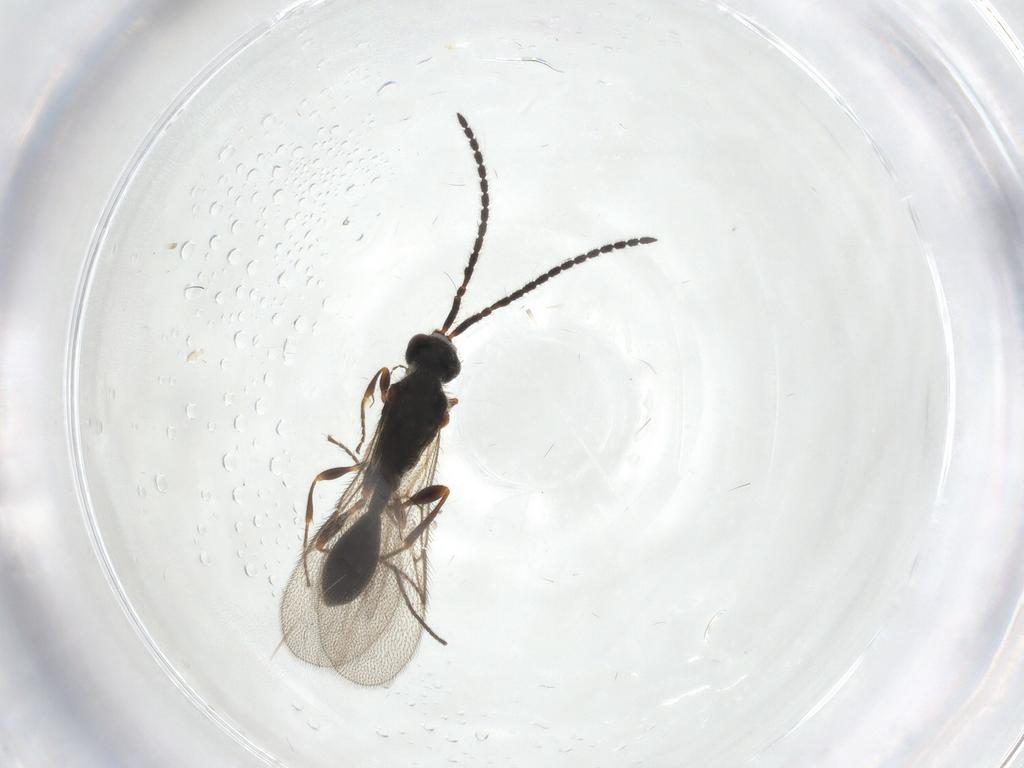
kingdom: Animalia
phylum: Arthropoda
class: Insecta
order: Hymenoptera
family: Diapriidae
